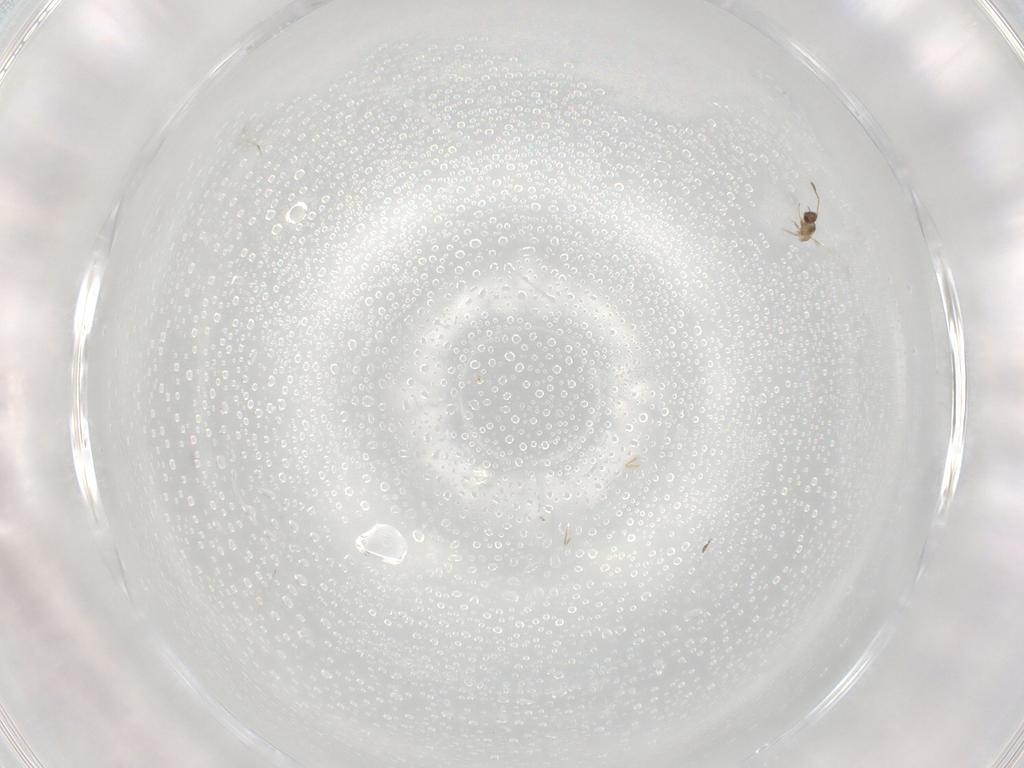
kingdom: Animalia
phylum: Arthropoda
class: Insecta
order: Hymenoptera
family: Mymaridae
